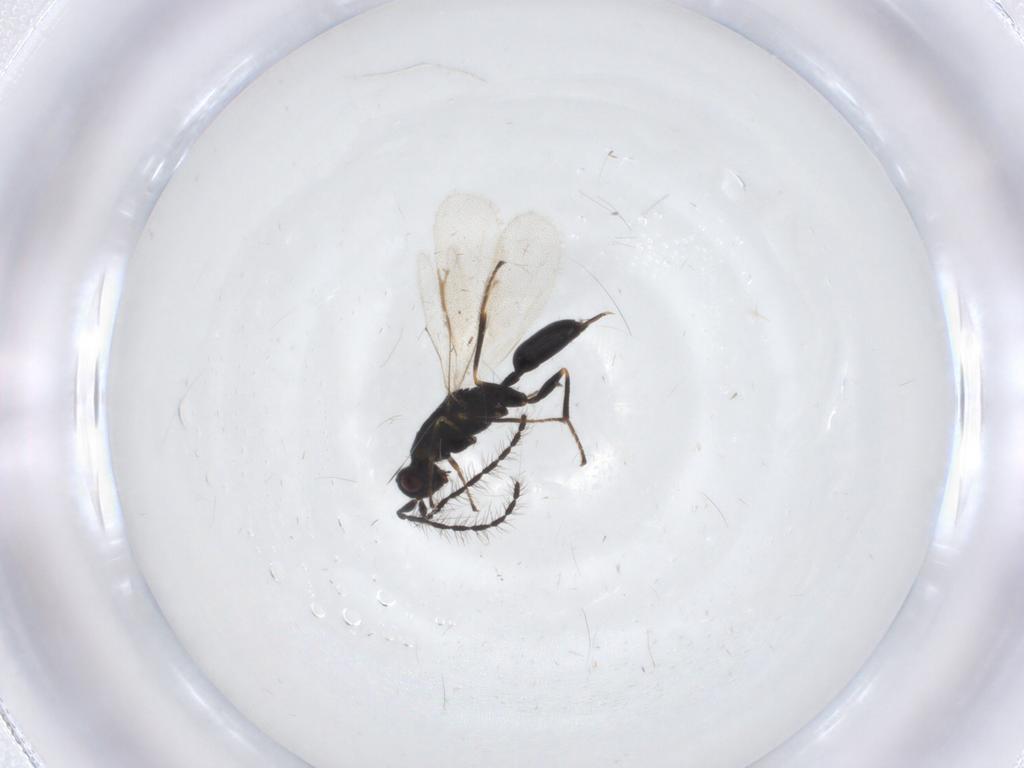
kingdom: Animalia
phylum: Arthropoda
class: Insecta
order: Hymenoptera
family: Eurytomidae
